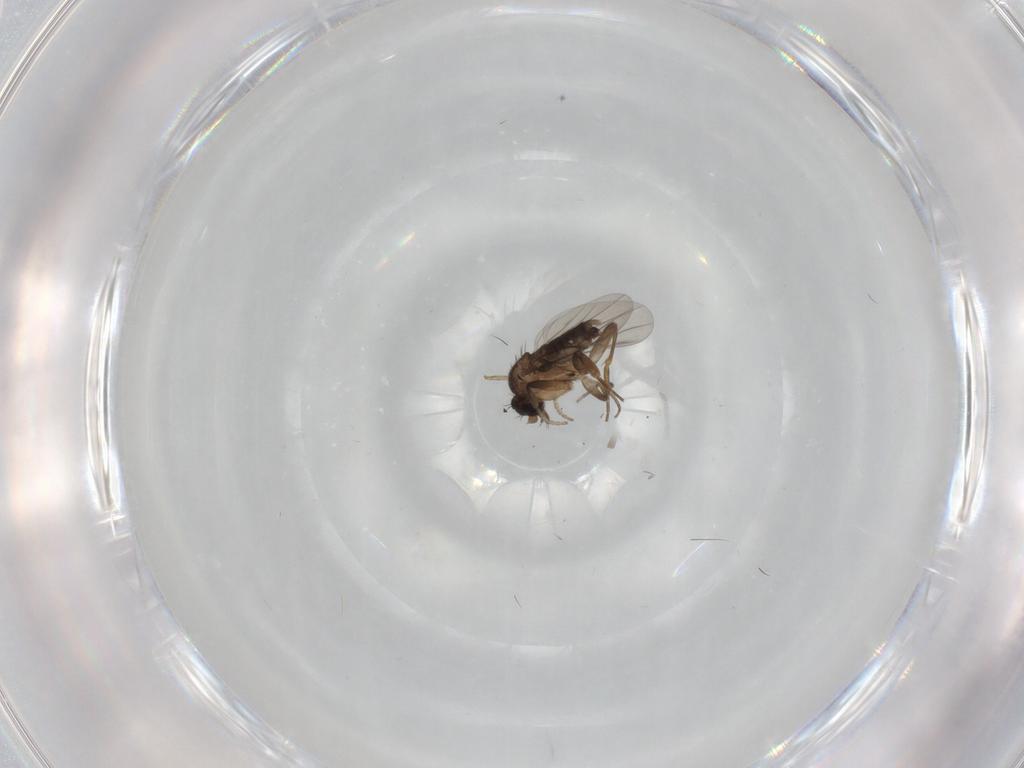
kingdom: Animalia
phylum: Arthropoda
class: Insecta
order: Diptera
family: Phoridae
